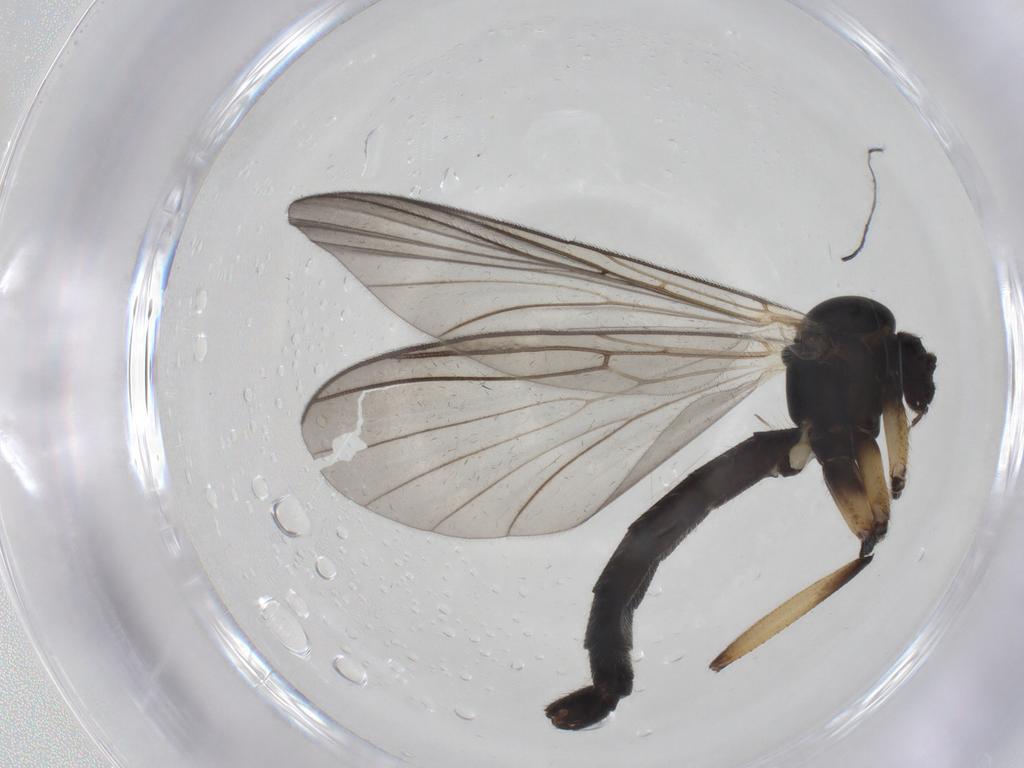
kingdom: Animalia
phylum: Arthropoda
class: Insecta
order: Diptera
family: Mycetophilidae
